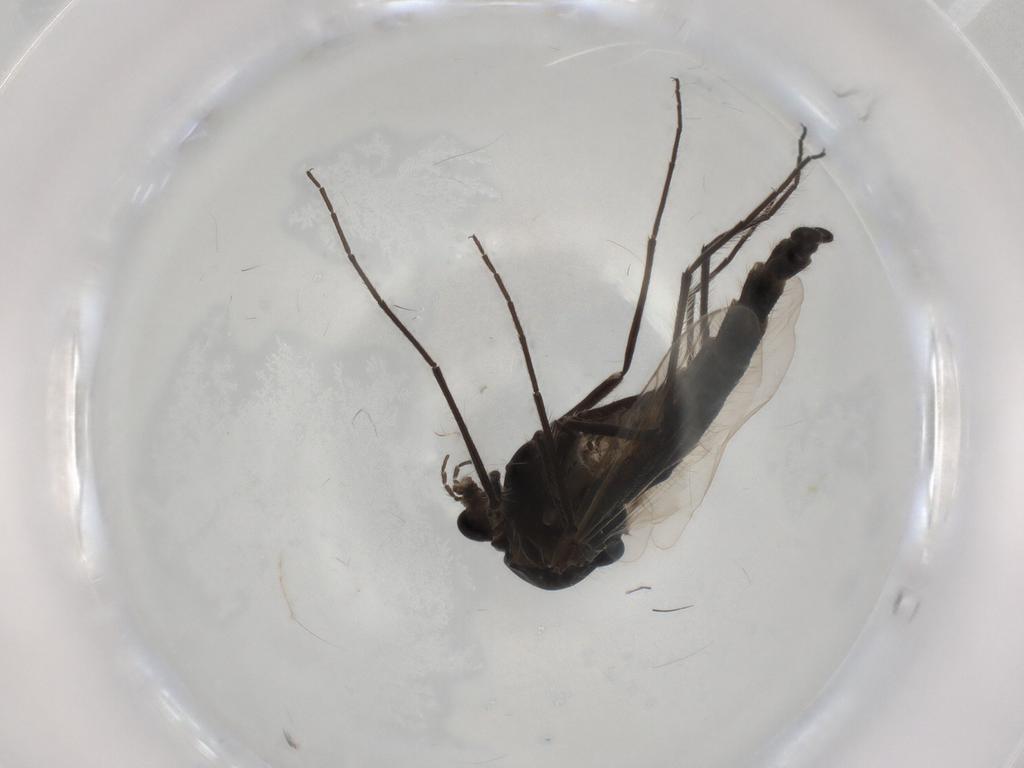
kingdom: Animalia
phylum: Arthropoda
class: Insecta
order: Diptera
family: Chironomidae
